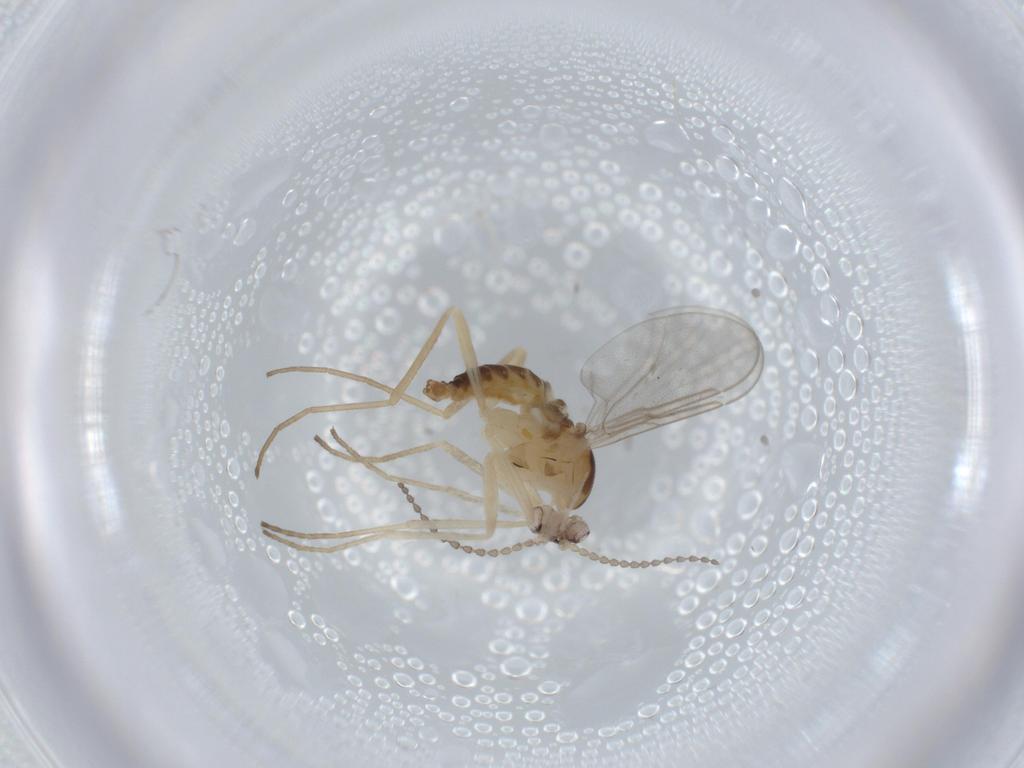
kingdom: Animalia
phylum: Arthropoda
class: Insecta
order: Diptera
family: Cecidomyiidae
